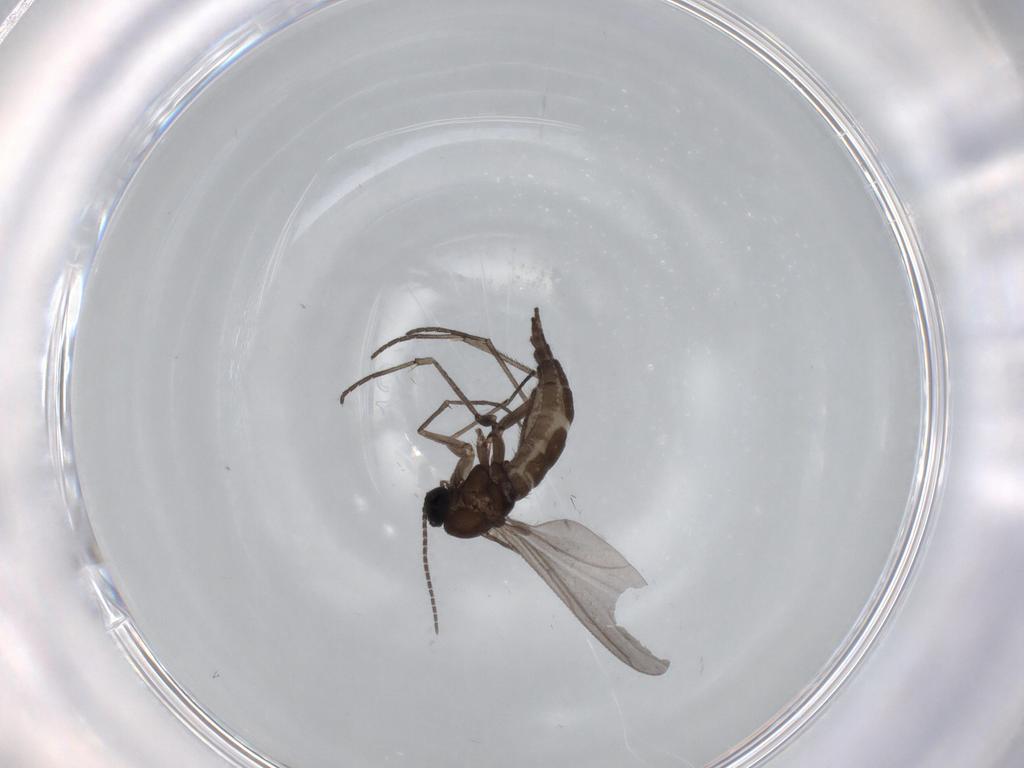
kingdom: Animalia
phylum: Arthropoda
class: Insecta
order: Diptera
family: Sciaridae
